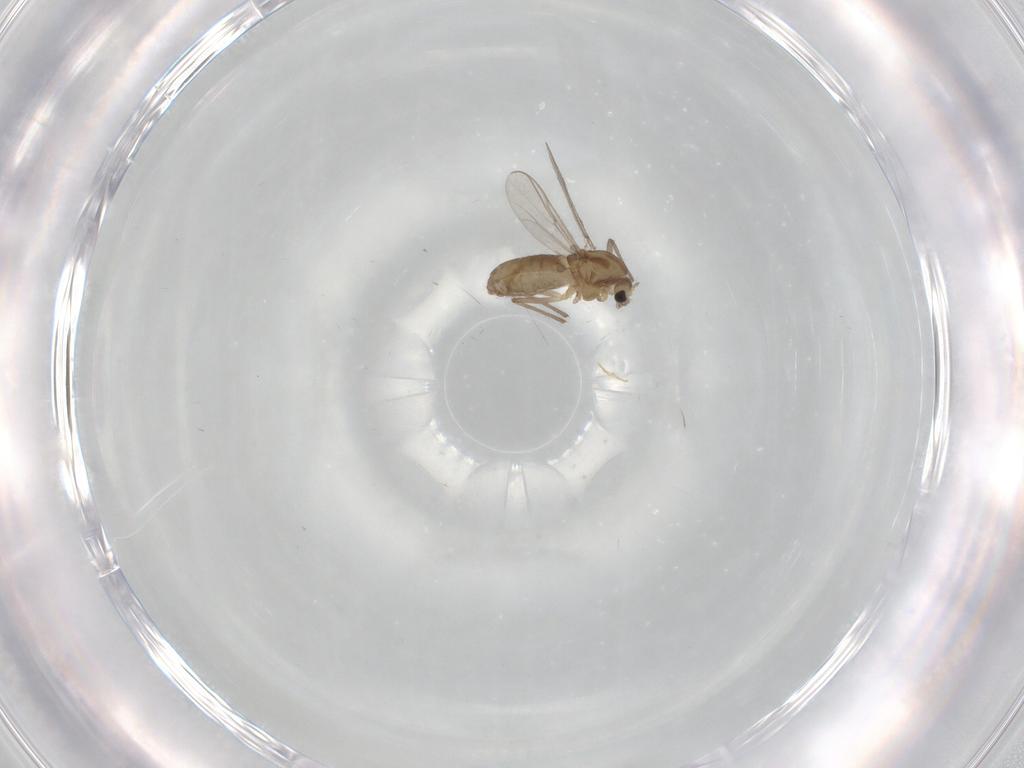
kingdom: Animalia
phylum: Arthropoda
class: Insecta
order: Diptera
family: Chironomidae
